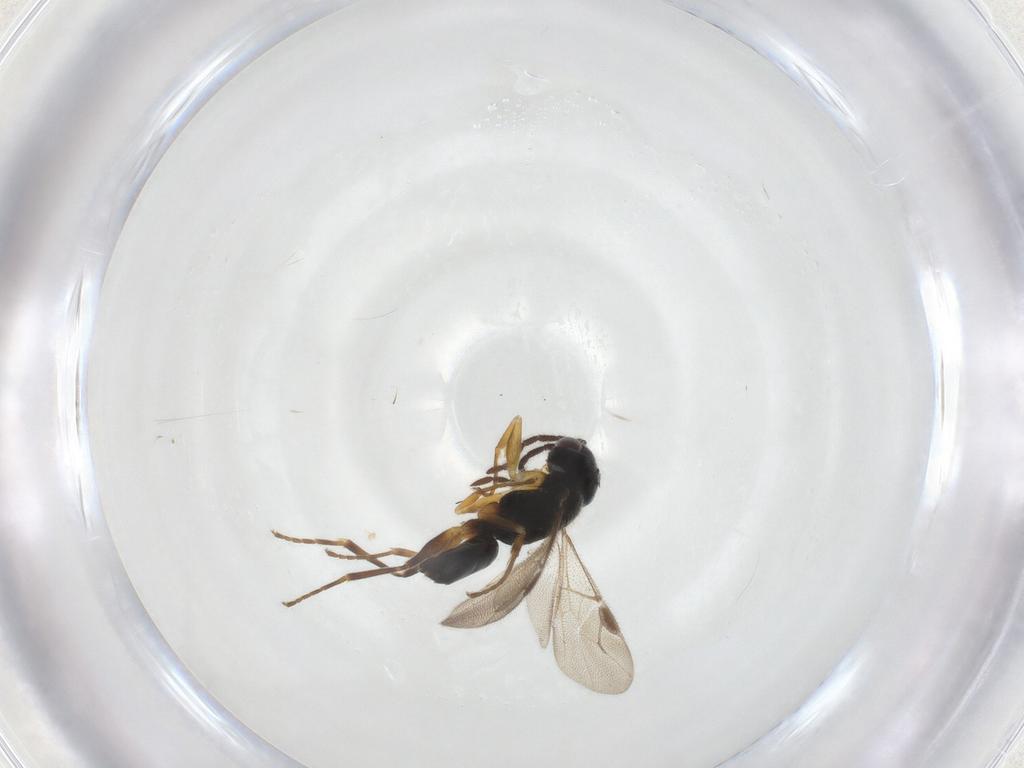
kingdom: Animalia
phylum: Arthropoda
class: Insecta
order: Hymenoptera
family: Dryinidae
